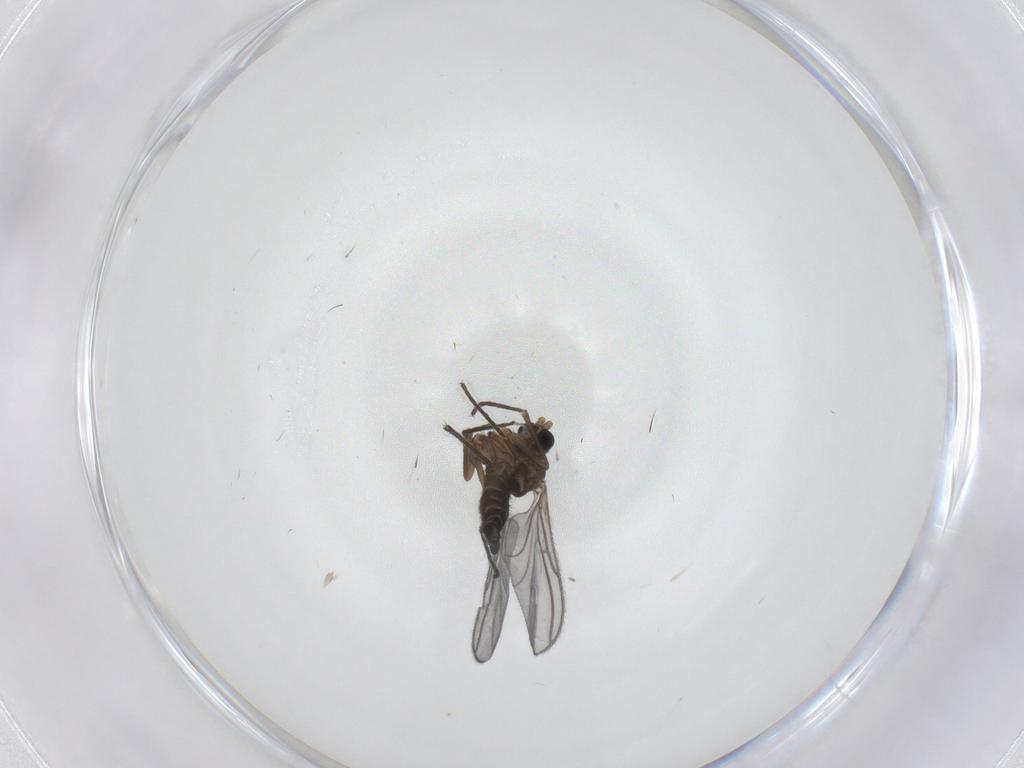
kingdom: Animalia
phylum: Arthropoda
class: Insecta
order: Diptera
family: Sciaridae
